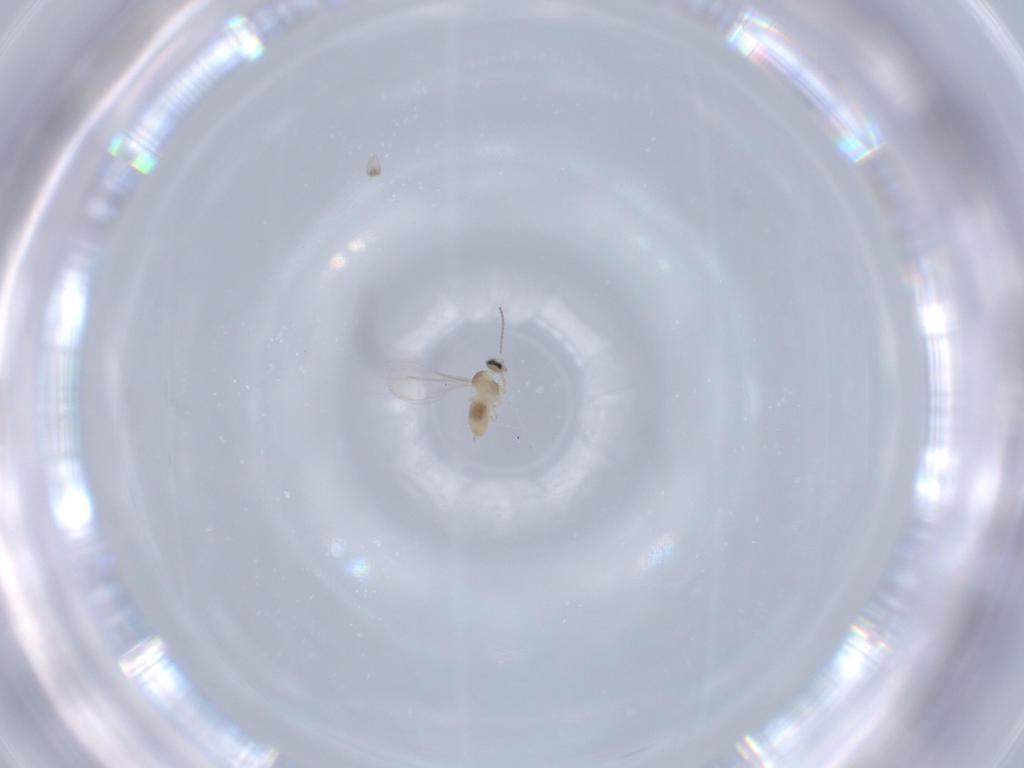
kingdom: Animalia
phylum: Arthropoda
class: Insecta
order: Diptera
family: Cecidomyiidae
